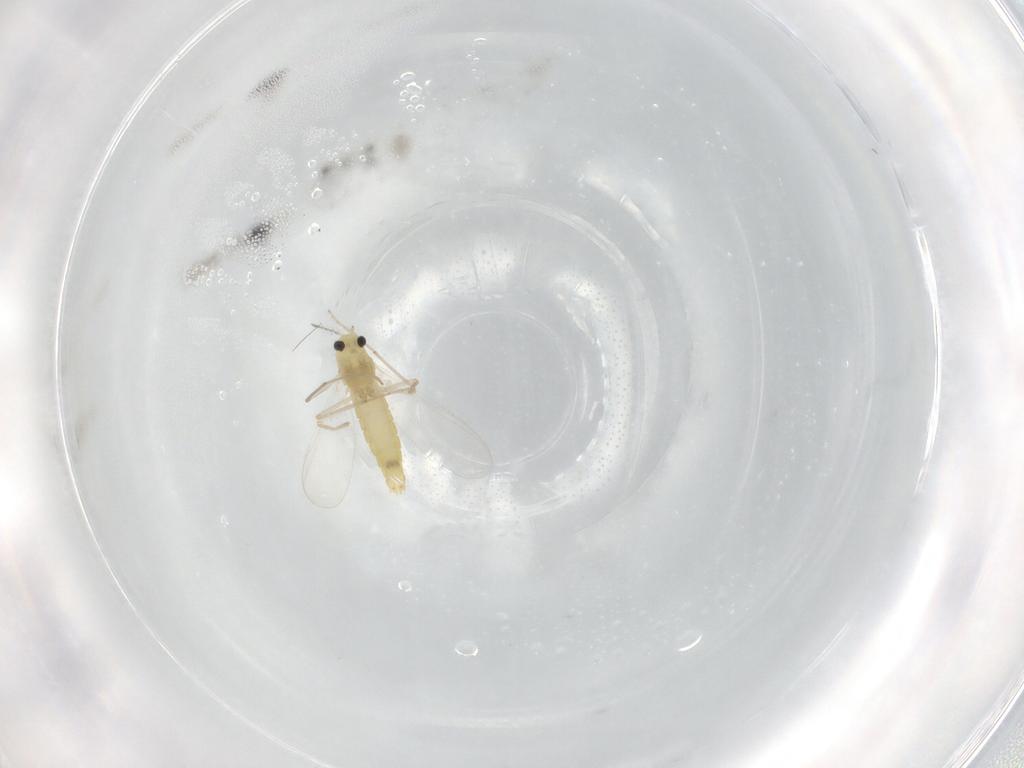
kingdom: Animalia
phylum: Arthropoda
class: Insecta
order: Diptera
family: Chironomidae
